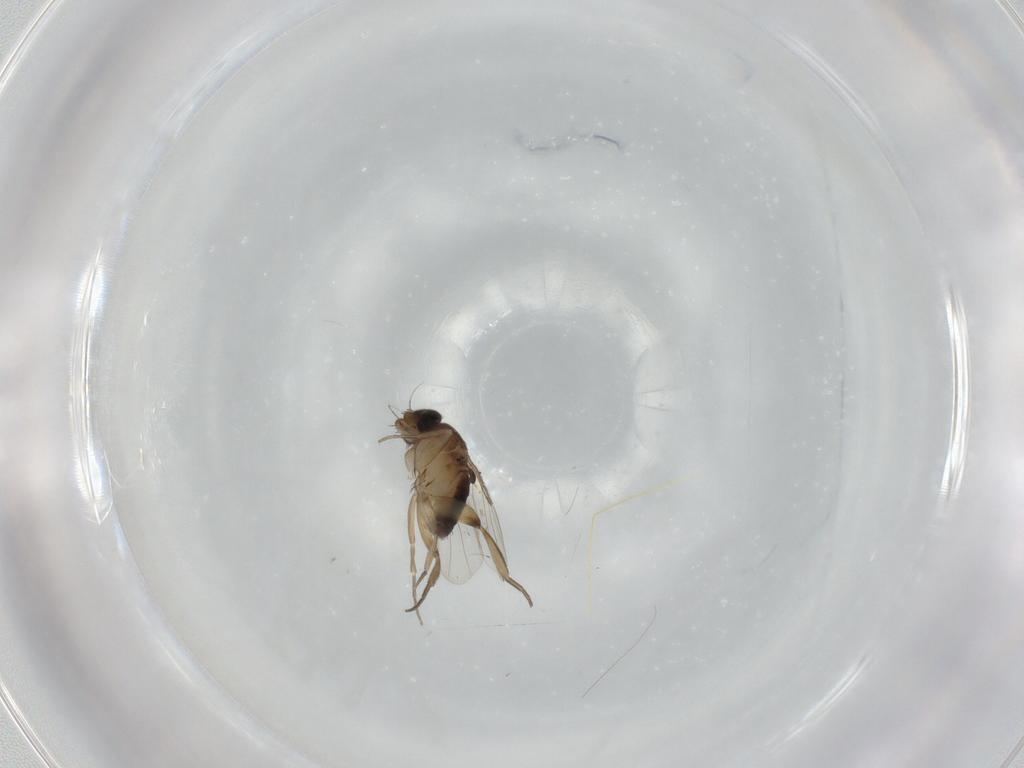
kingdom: Animalia
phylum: Arthropoda
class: Insecta
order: Diptera
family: Phoridae
